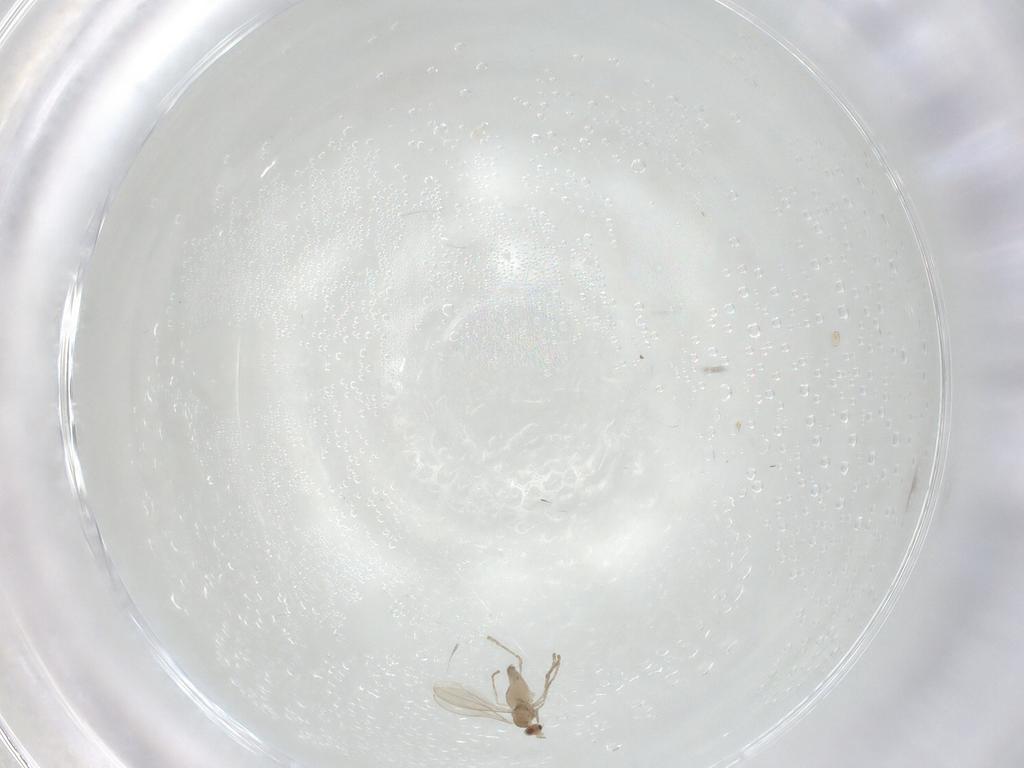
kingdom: Animalia
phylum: Arthropoda
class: Insecta
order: Diptera
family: Cecidomyiidae
